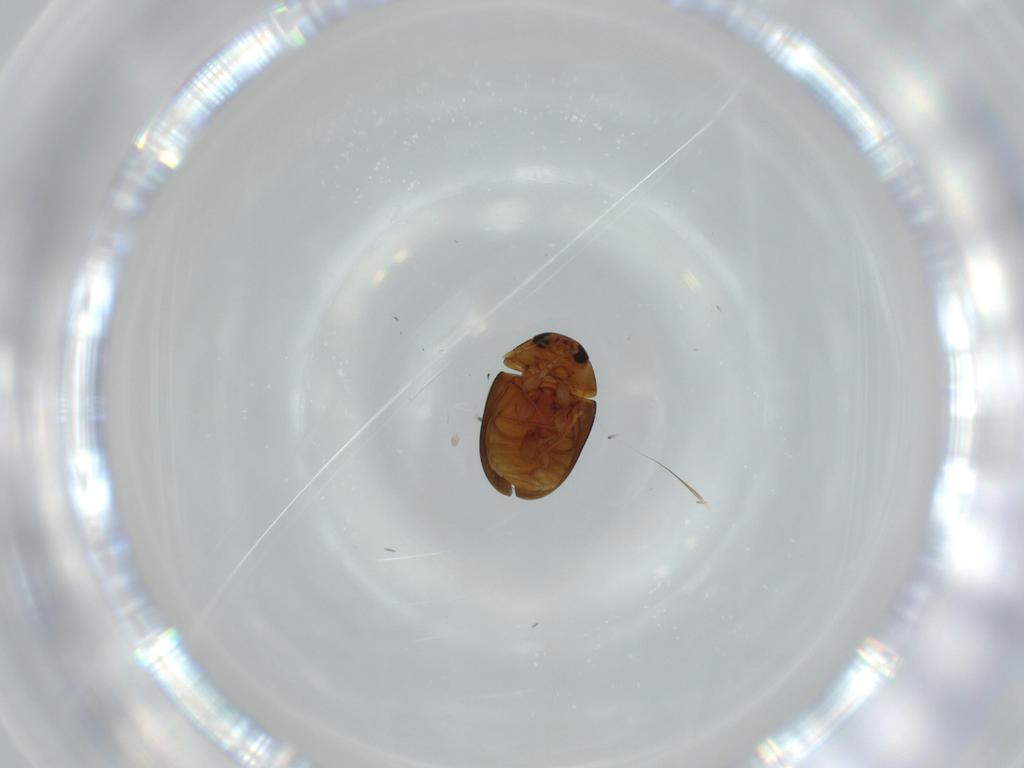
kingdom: Animalia
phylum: Arthropoda
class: Insecta
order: Coleoptera
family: Phalacridae
